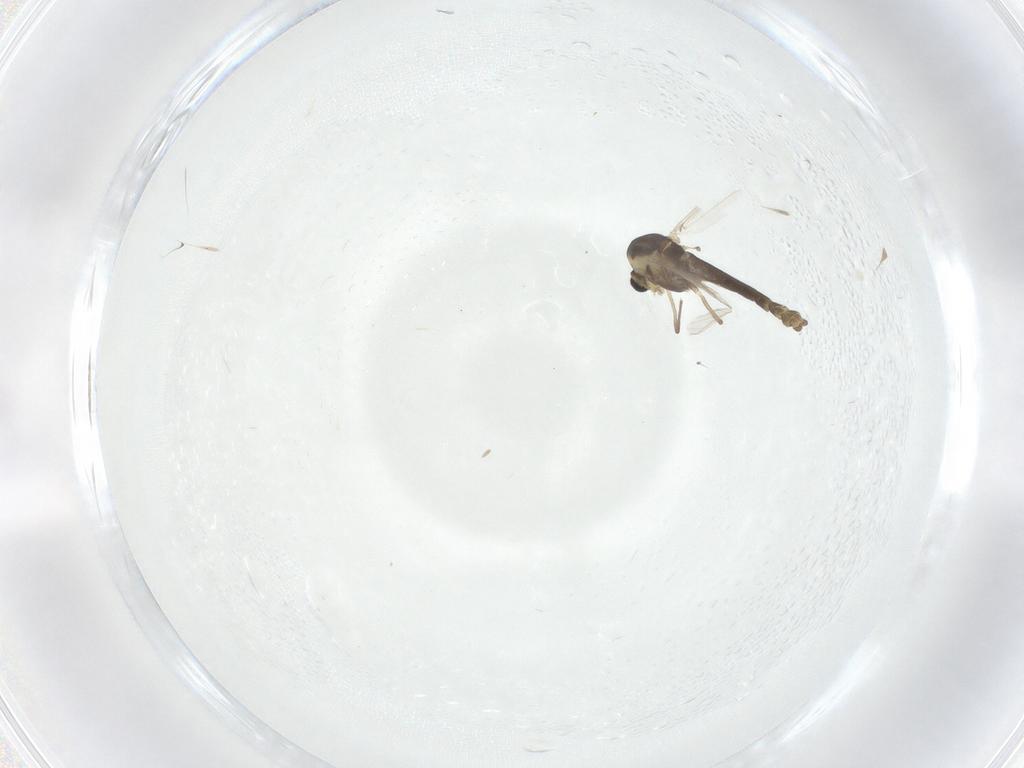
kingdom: Animalia
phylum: Arthropoda
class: Insecta
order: Diptera
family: Chironomidae
